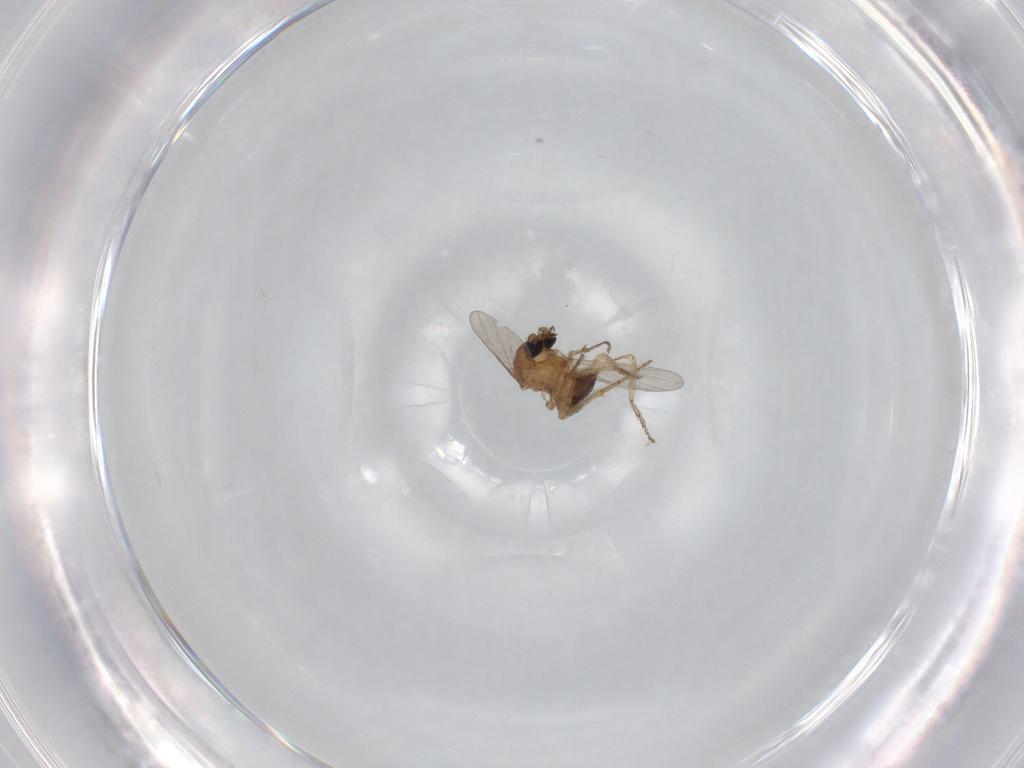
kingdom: Animalia
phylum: Arthropoda
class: Insecta
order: Diptera
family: Ceratopogonidae
